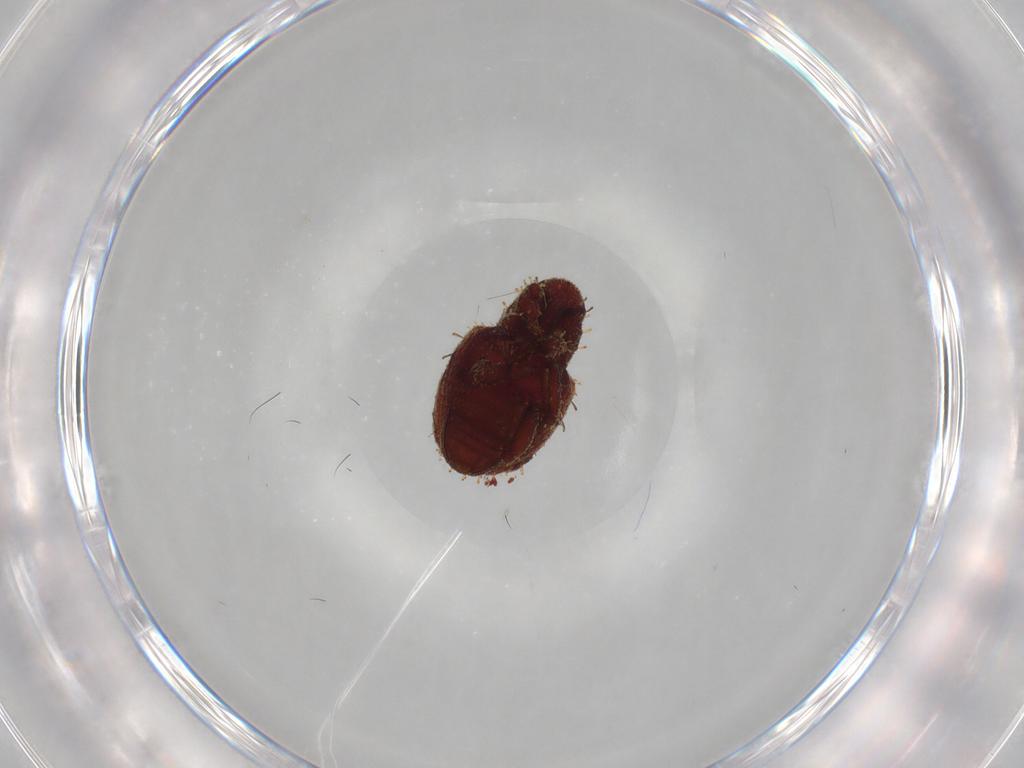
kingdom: Animalia
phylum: Arthropoda
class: Insecta
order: Coleoptera
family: Curculionidae
